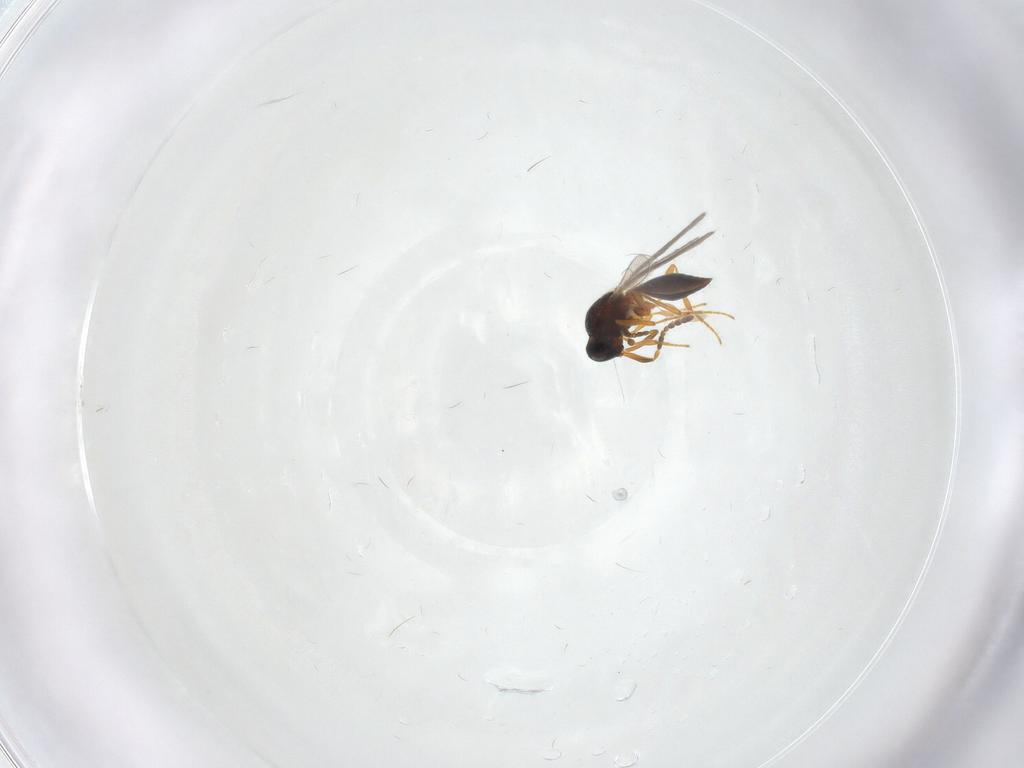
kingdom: Animalia
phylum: Arthropoda
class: Insecta
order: Hymenoptera
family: Platygastridae
